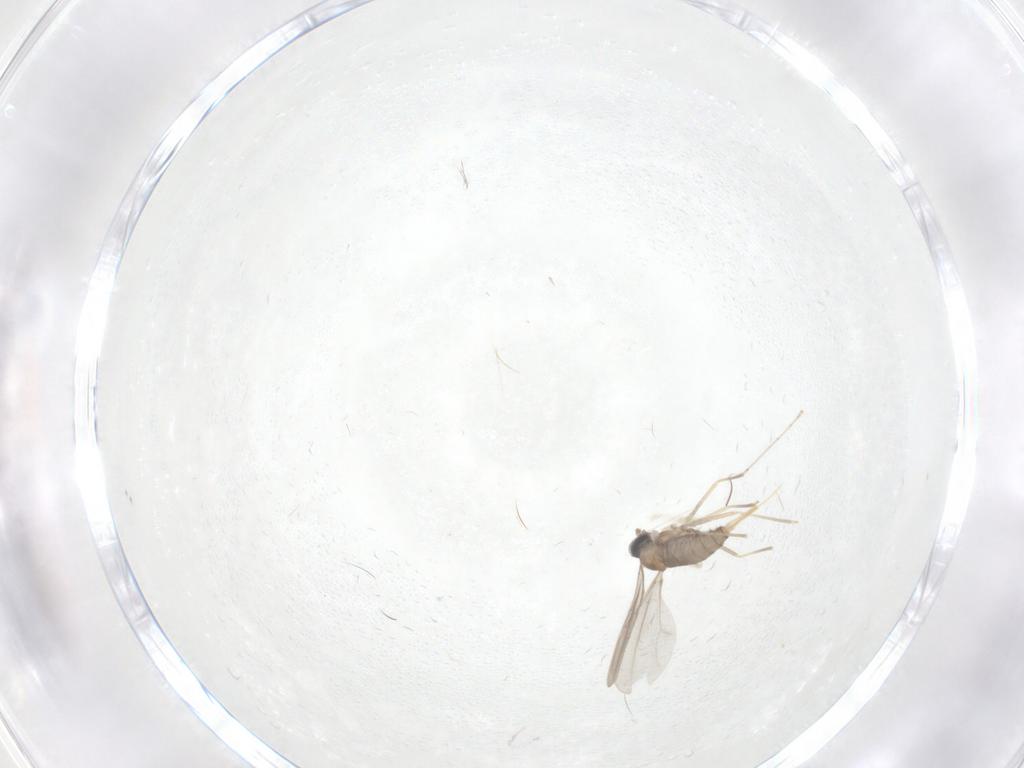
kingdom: Animalia
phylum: Arthropoda
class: Insecta
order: Diptera
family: Cecidomyiidae
